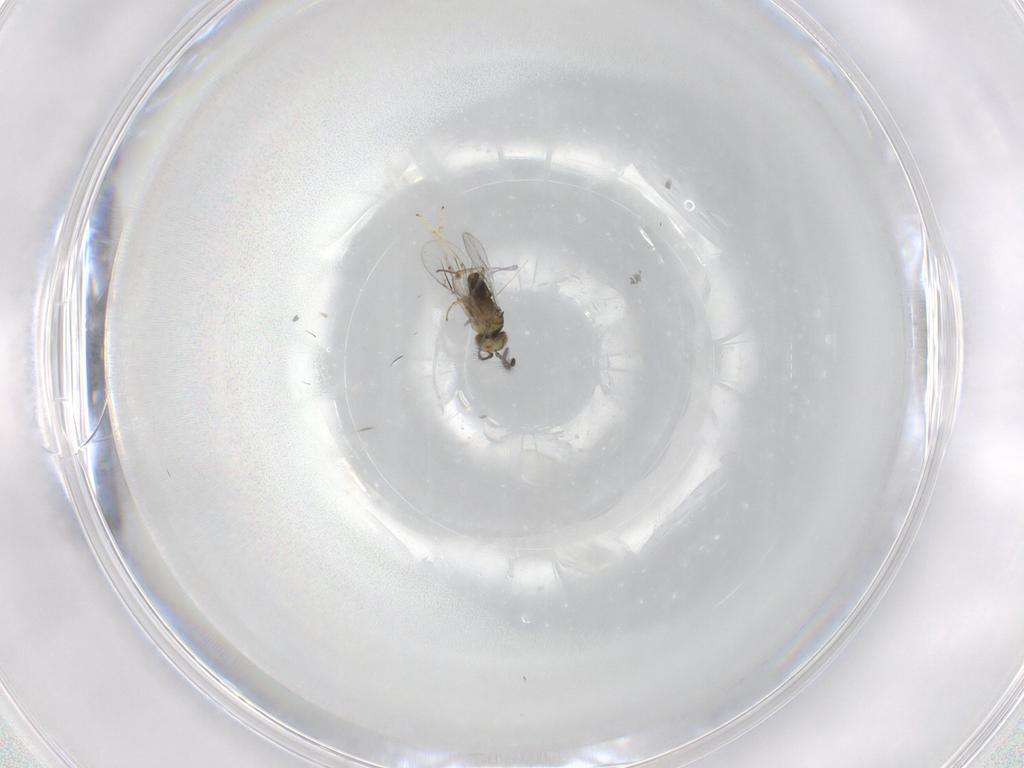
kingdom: Animalia
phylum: Arthropoda
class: Insecta
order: Hymenoptera
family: Encyrtidae
